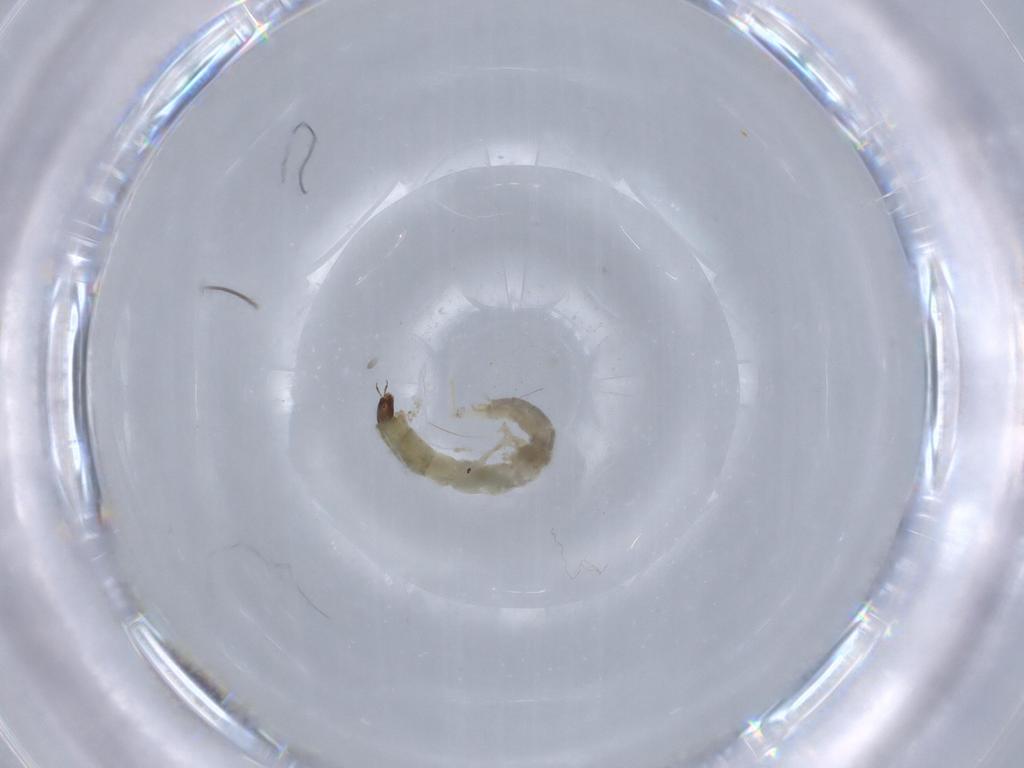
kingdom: Animalia
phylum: Arthropoda
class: Insecta
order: Diptera
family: Chironomidae
